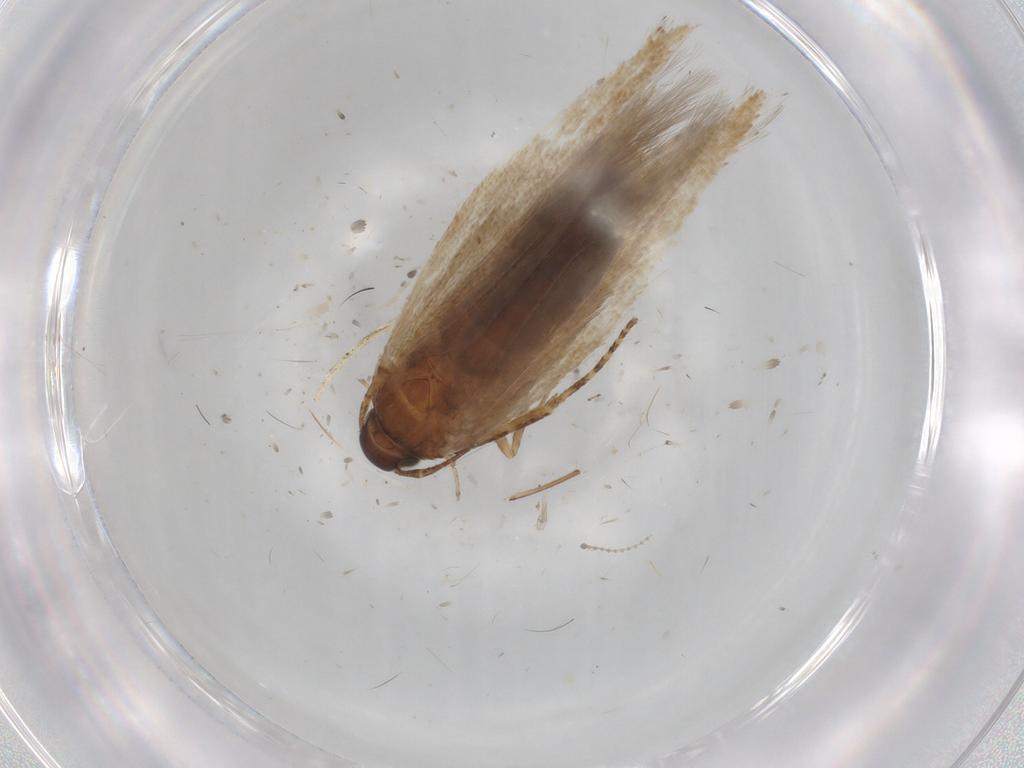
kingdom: Animalia
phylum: Arthropoda
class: Insecta
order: Lepidoptera
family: Gelechiidae
